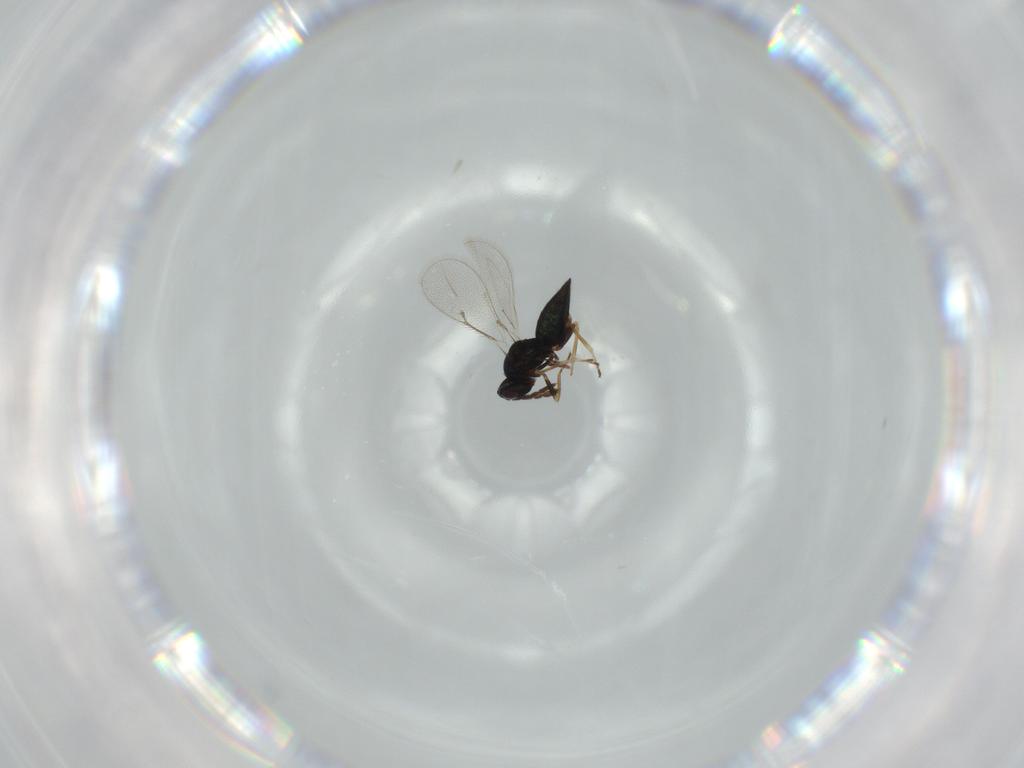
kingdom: Animalia
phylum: Arthropoda
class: Insecta
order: Hymenoptera
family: Eulophidae
